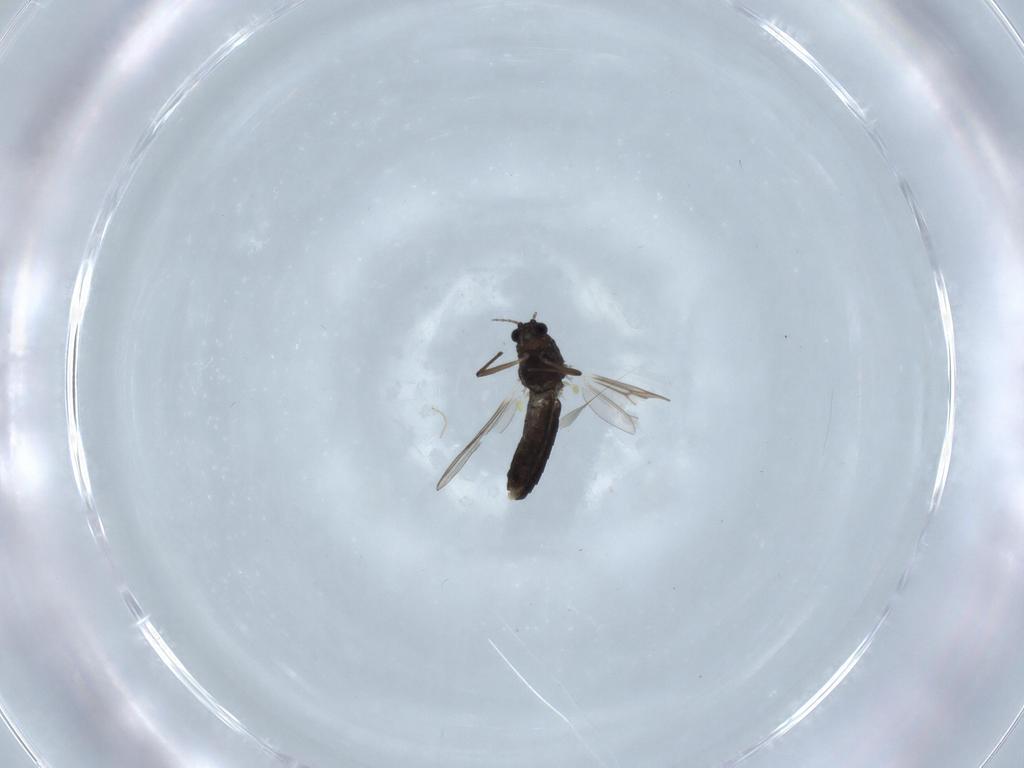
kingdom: Animalia
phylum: Arthropoda
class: Insecta
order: Diptera
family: Chironomidae
